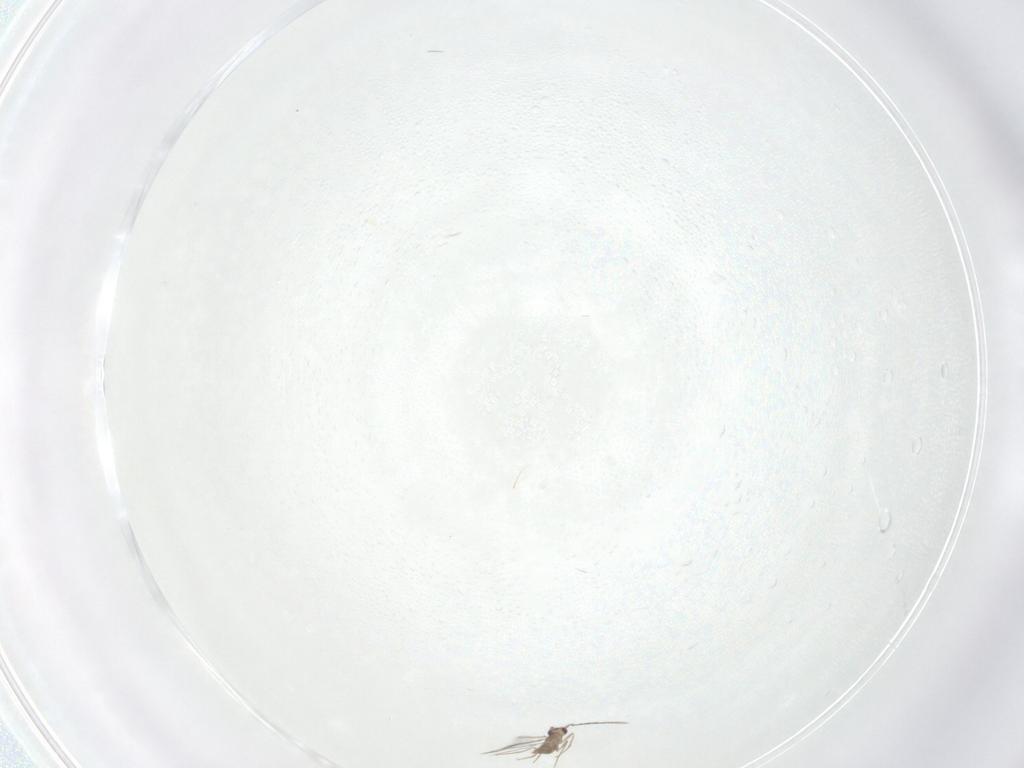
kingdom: Animalia
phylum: Arthropoda
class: Insecta
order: Hymenoptera
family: Mymaridae
